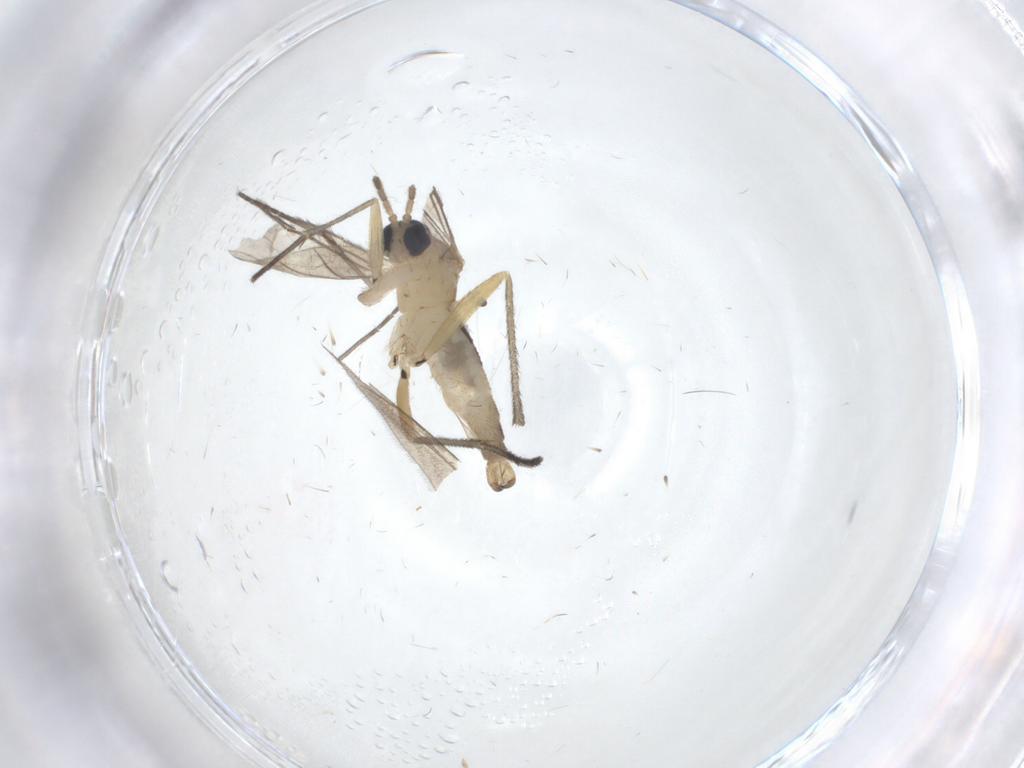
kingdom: Animalia
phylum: Arthropoda
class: Insecta
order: Diptera
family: Sciaridae
